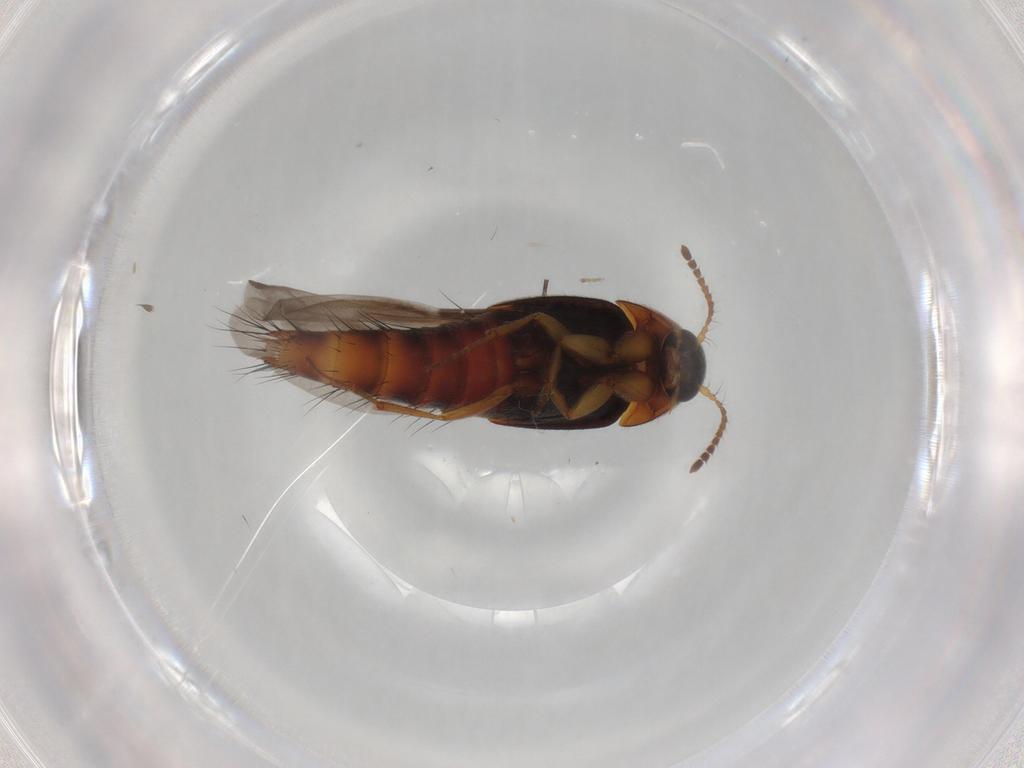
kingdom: Animalia
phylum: Arthropoda
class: Insecta
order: Coleoptera
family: Staphylinidae
